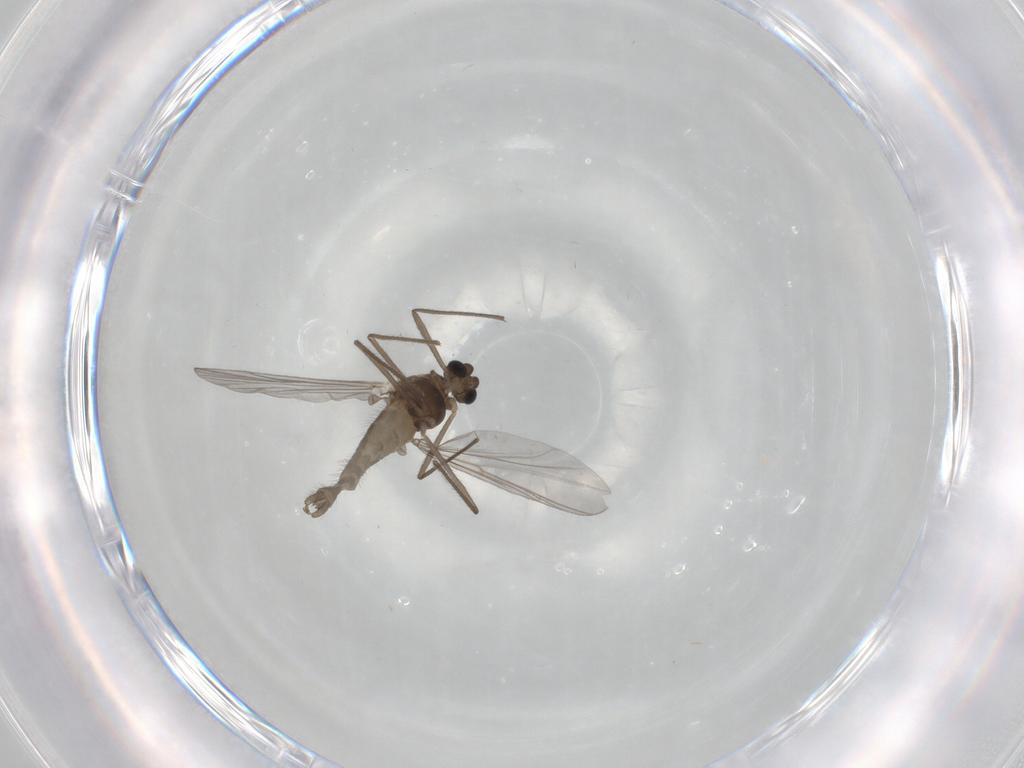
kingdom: Animalia
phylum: Arthropoda
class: Insecta
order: Diptera
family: Chironomidae
